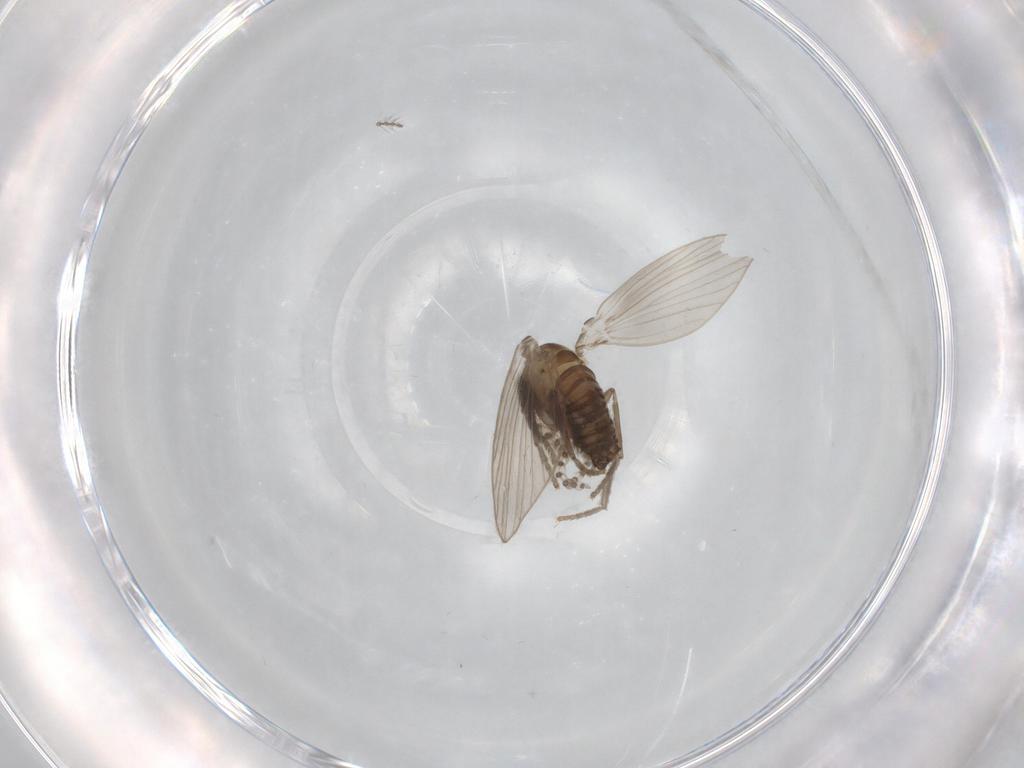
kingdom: Animalia
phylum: Arthropoda
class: Insecta
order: Diptera
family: Psychodidae
